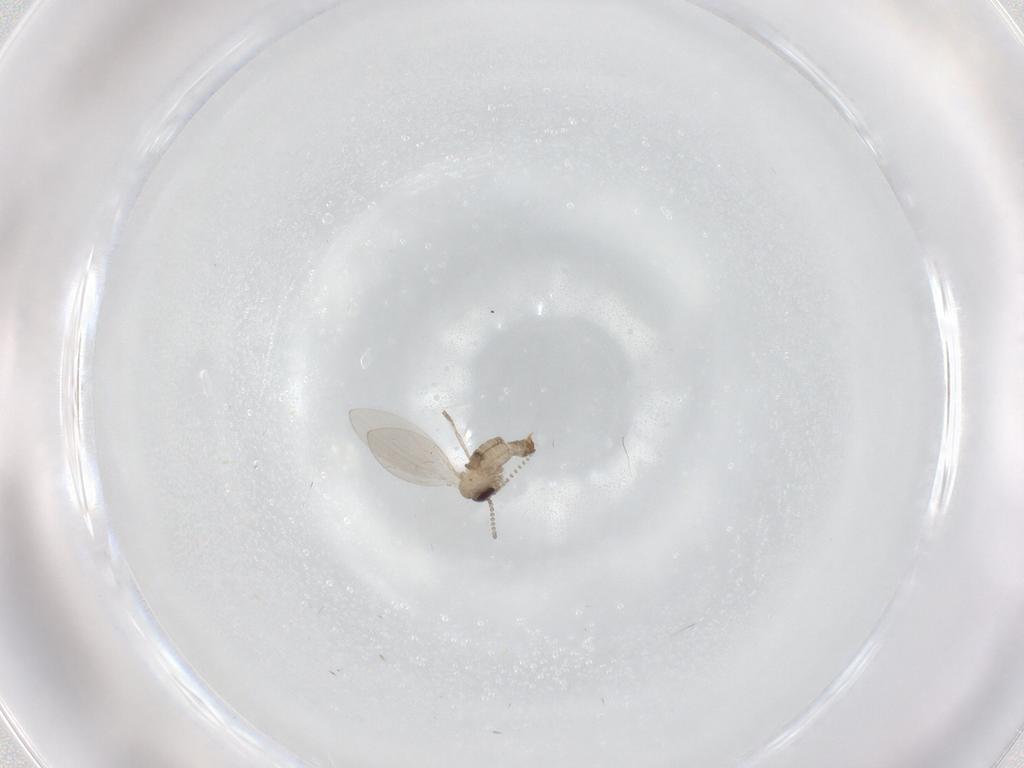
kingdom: Animalia
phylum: Arthropoda
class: Insecta
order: Diptera
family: Psychodidae
